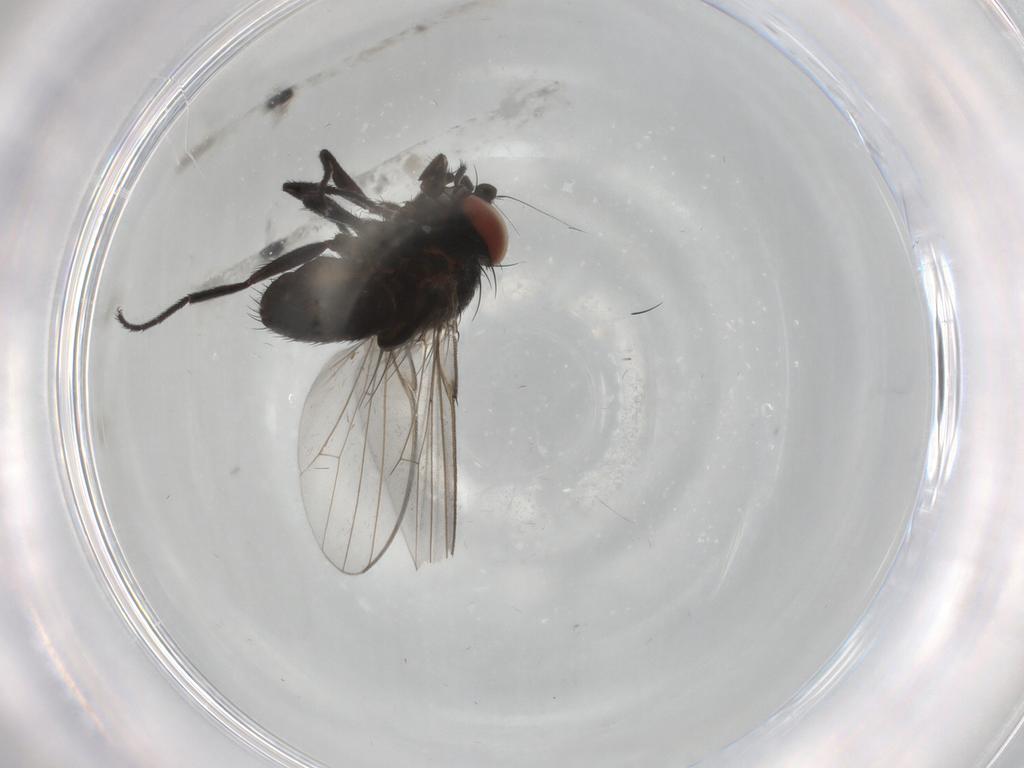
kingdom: Animalia
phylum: Arthropoda
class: Insecta
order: Diptera
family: Milichiidae
